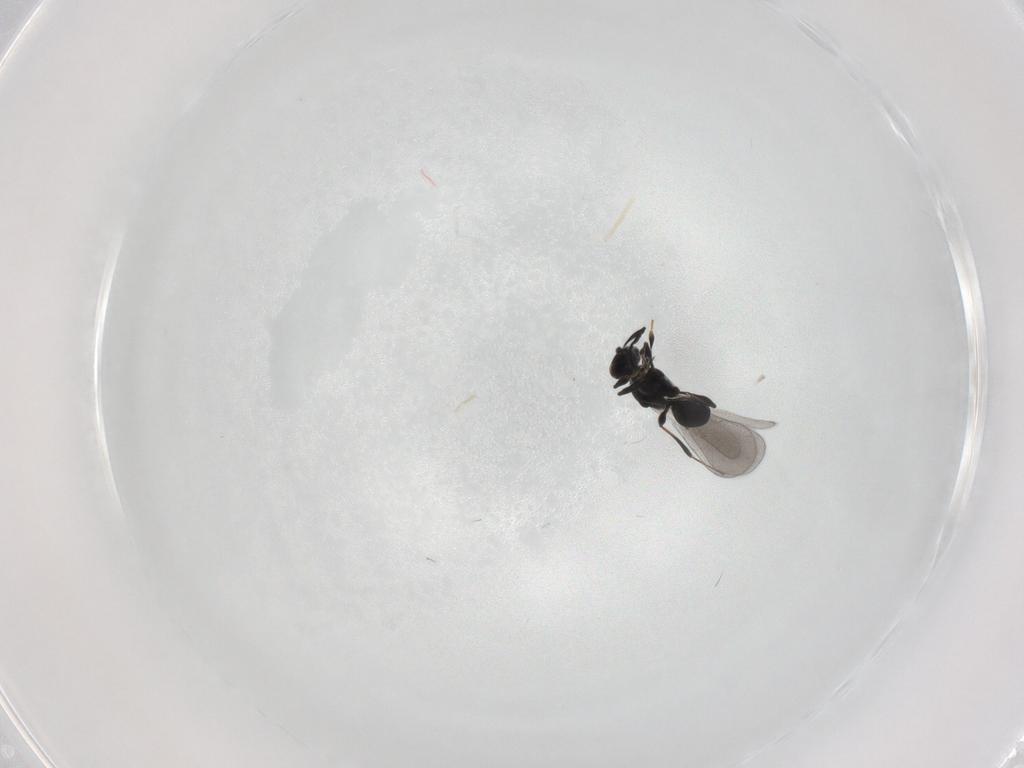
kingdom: Animalia
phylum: Arthropoda
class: Insecta
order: Hymenoptera
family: Platygastridae
